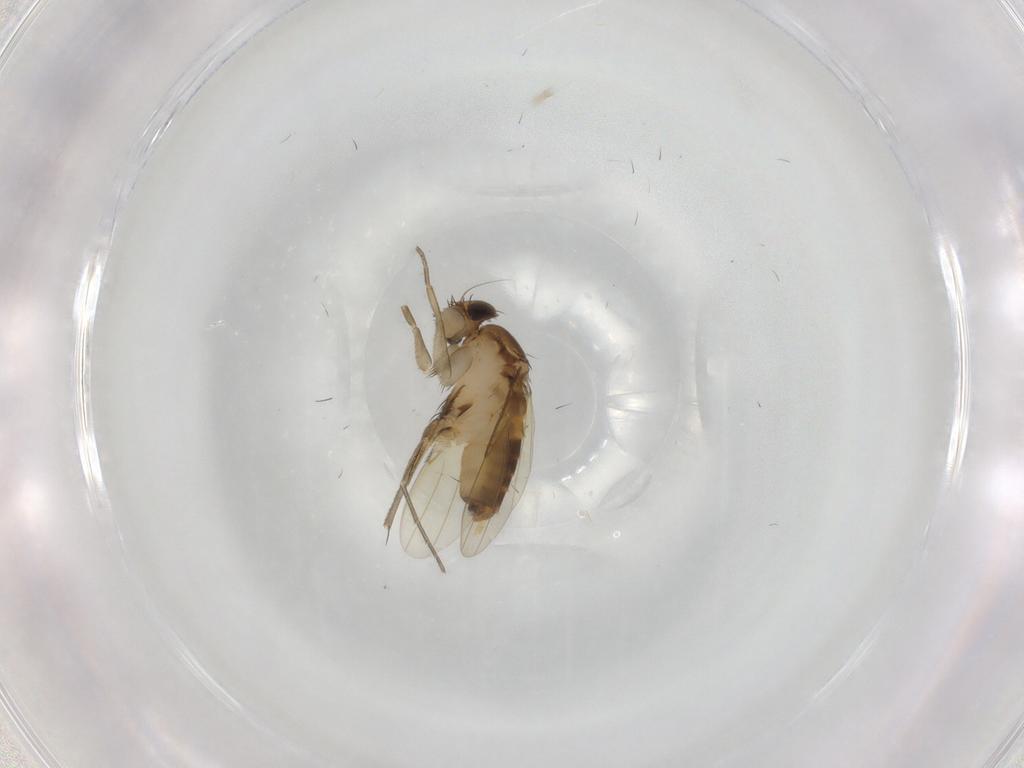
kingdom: Animalia
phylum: Arthropoda
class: Insecta
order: Diptera
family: Phoridae
